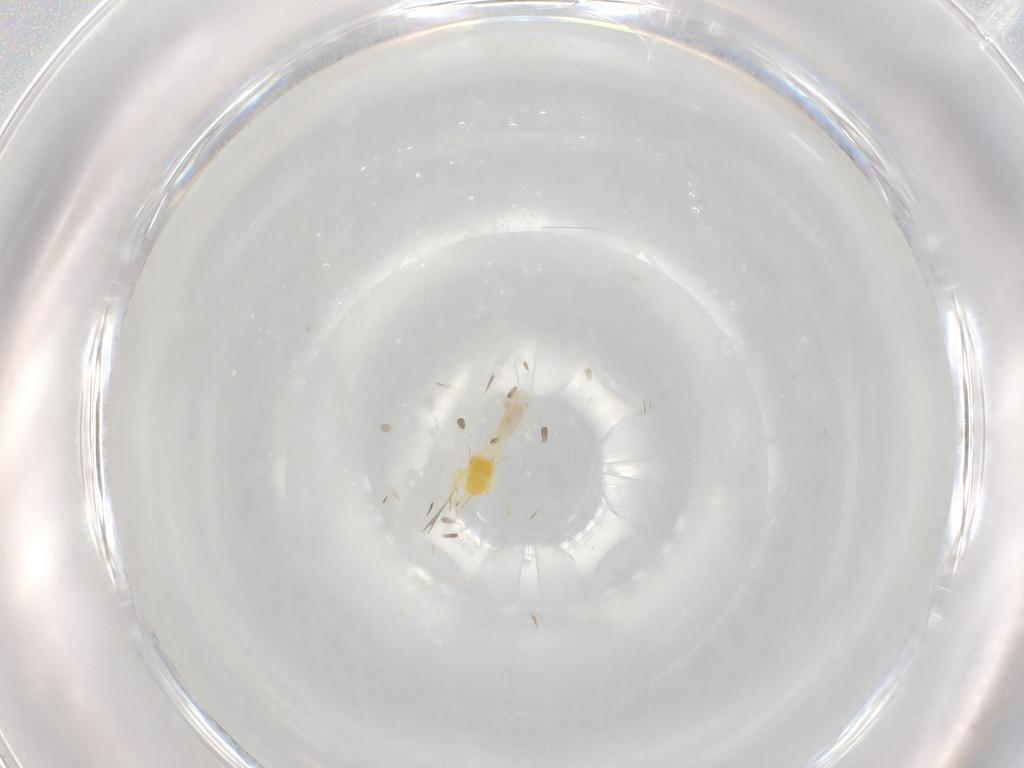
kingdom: Animalia
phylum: Arthropoda
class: Insecta
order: Hemiptera
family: Aleyrodidae
